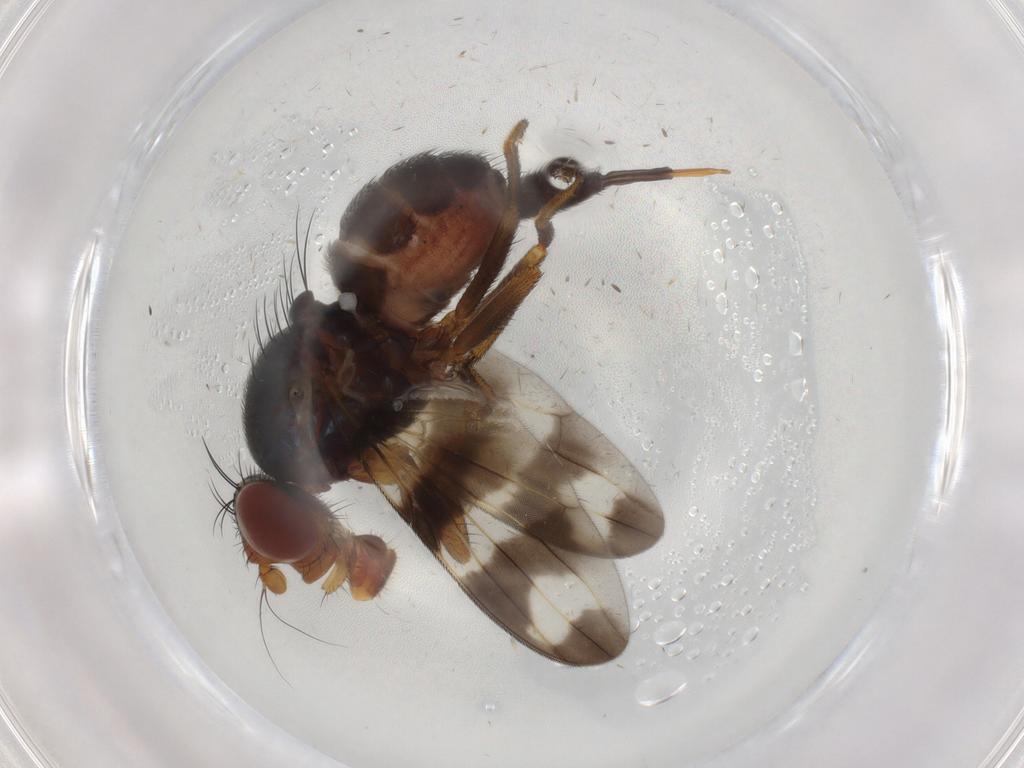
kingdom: Animalia
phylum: Arthropoda
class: Insecta
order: Diptera
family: Ulidiidae
